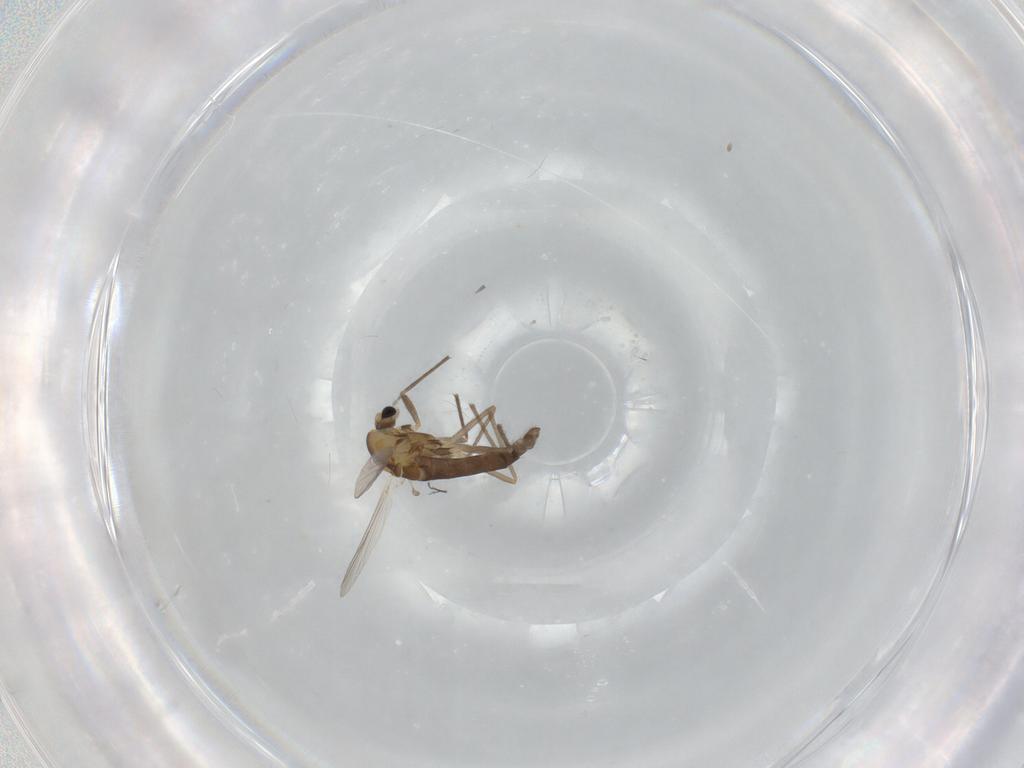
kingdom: Animalia
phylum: Arthropoda
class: Insecta
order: Diptera
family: Chironomidae
